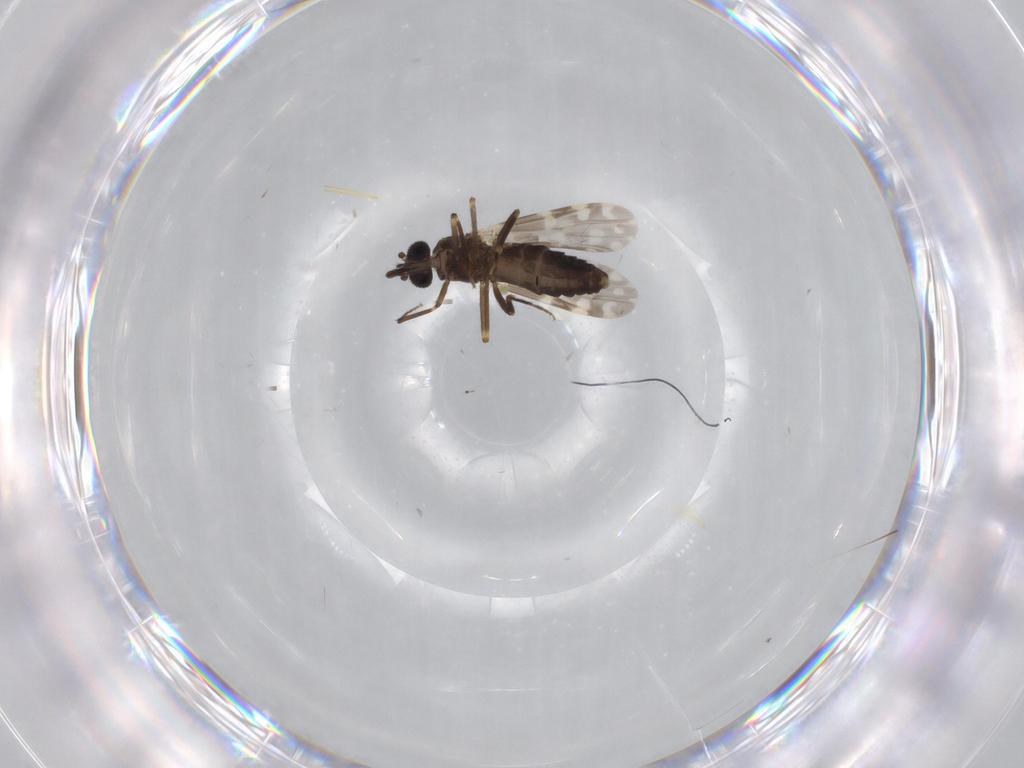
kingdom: Animalia
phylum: Arthropoda
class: Insecta
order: Diptera
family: Ceratopogonidae
